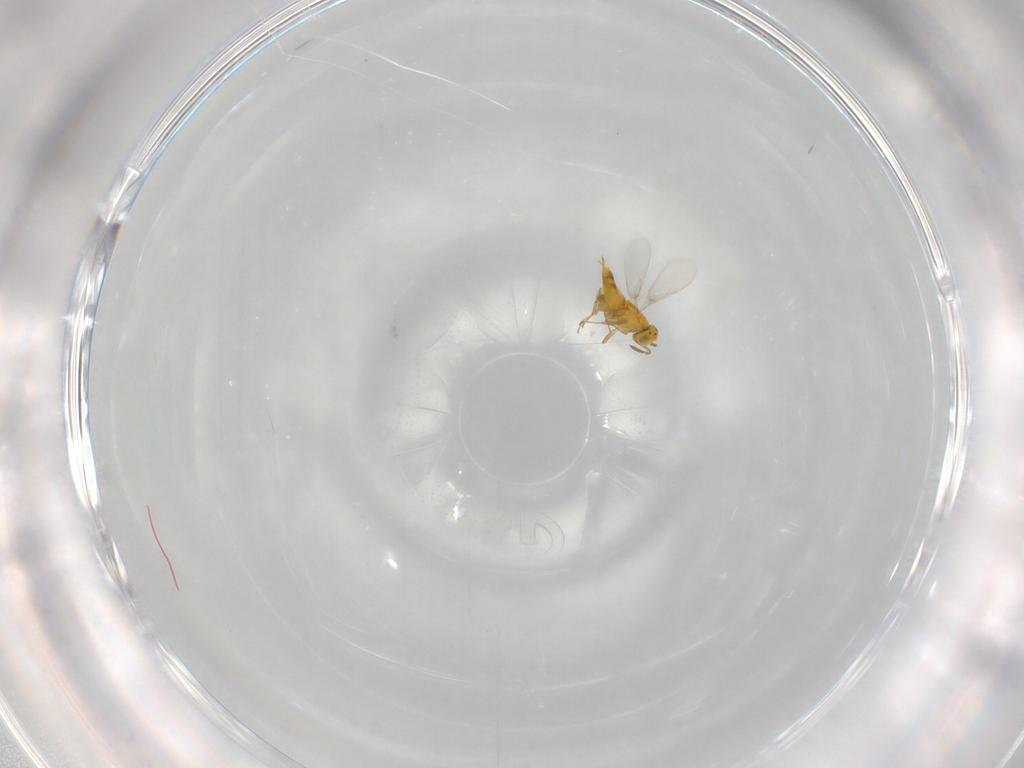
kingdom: Animalia
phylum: Arthropoda
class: Insecta
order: Hymenoptera
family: Aphelinidae
